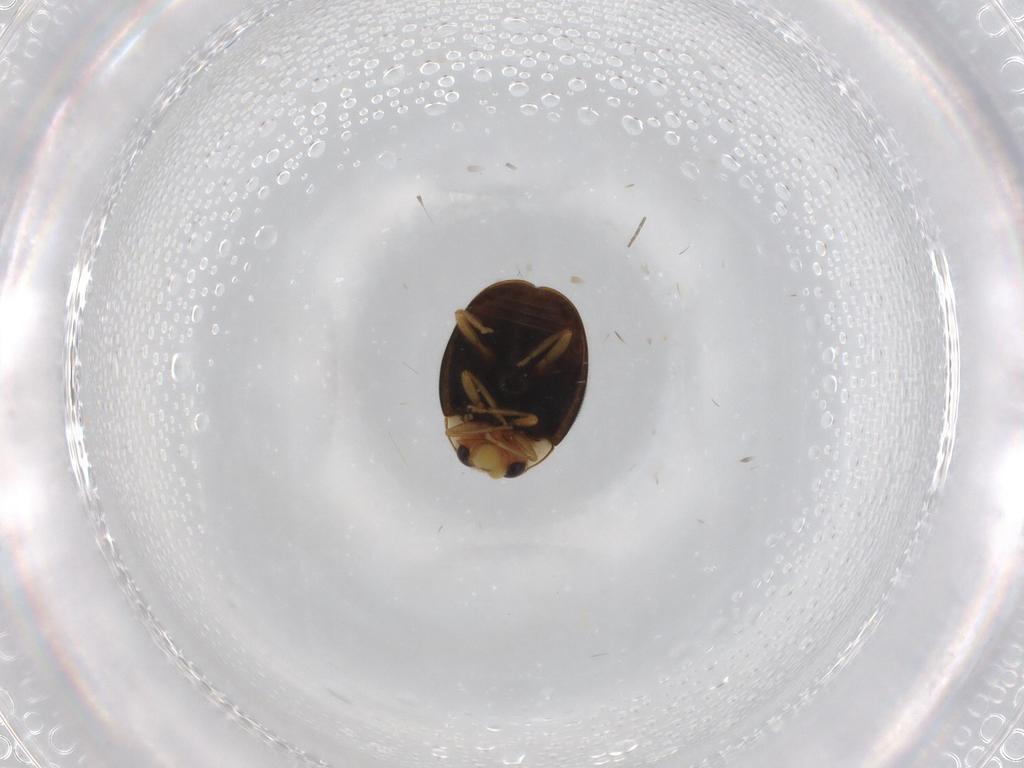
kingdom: Animalia
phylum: Arthropoda
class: Insecta
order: Coleoptera
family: Coccinellidae
